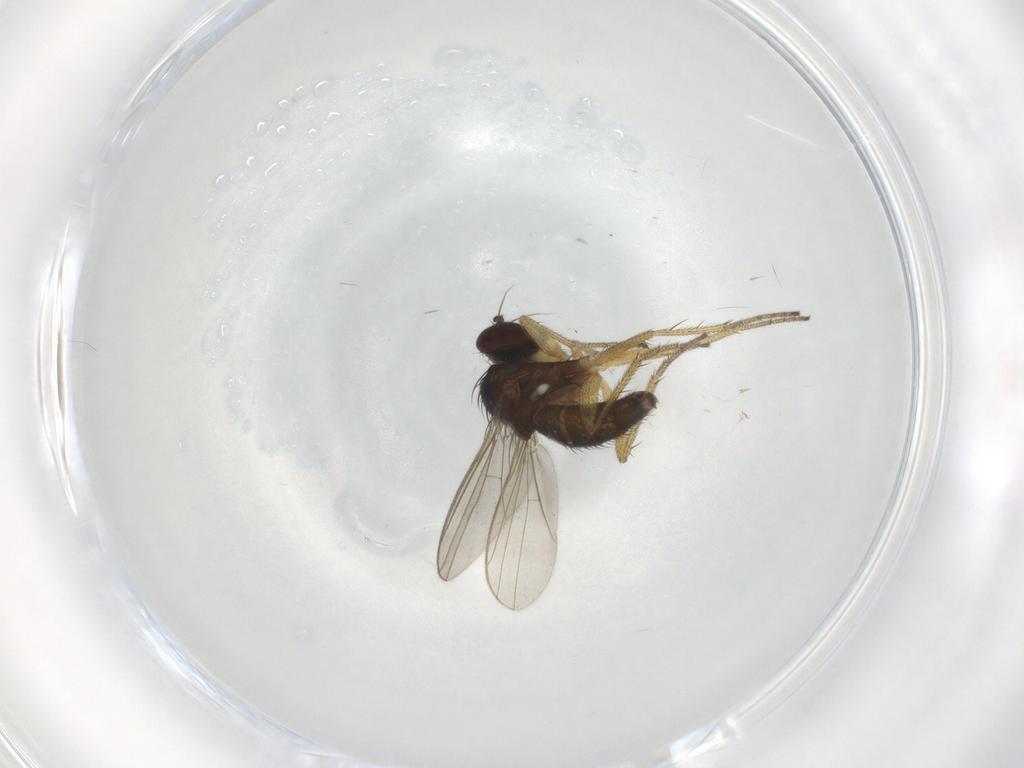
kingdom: Animalia
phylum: Arthropoda
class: Insecta
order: Diptera
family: Dolichopodidae
